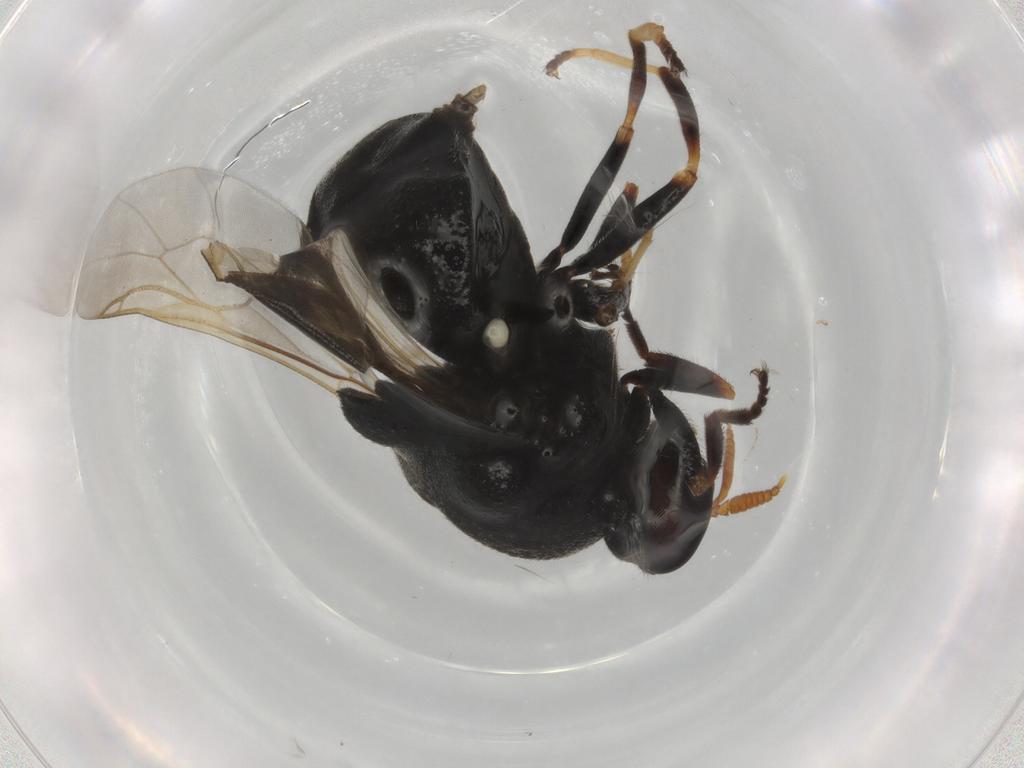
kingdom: Animalia
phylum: Arthropoda
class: Insecta
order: Diptera
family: Stratiomyidae
